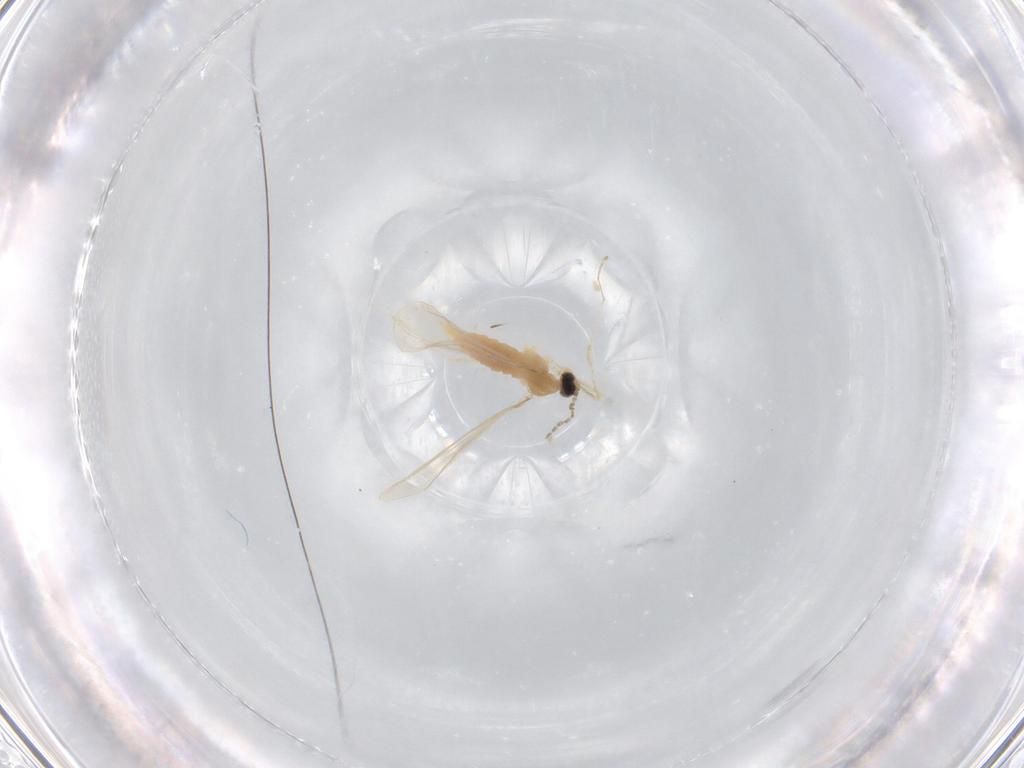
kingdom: Animalia
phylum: Arthropoda
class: Insecta
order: Diptera
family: Cecidomyiidae
